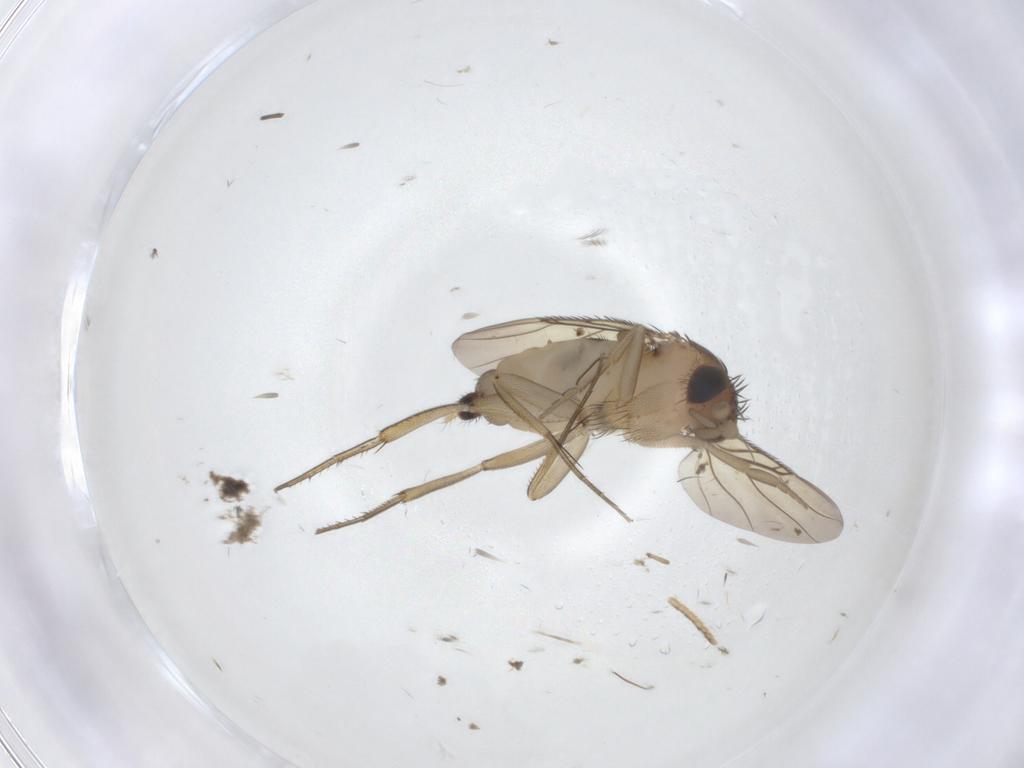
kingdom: Animalia
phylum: Arthropoda
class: Insecta
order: Diptera
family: Phoridae
